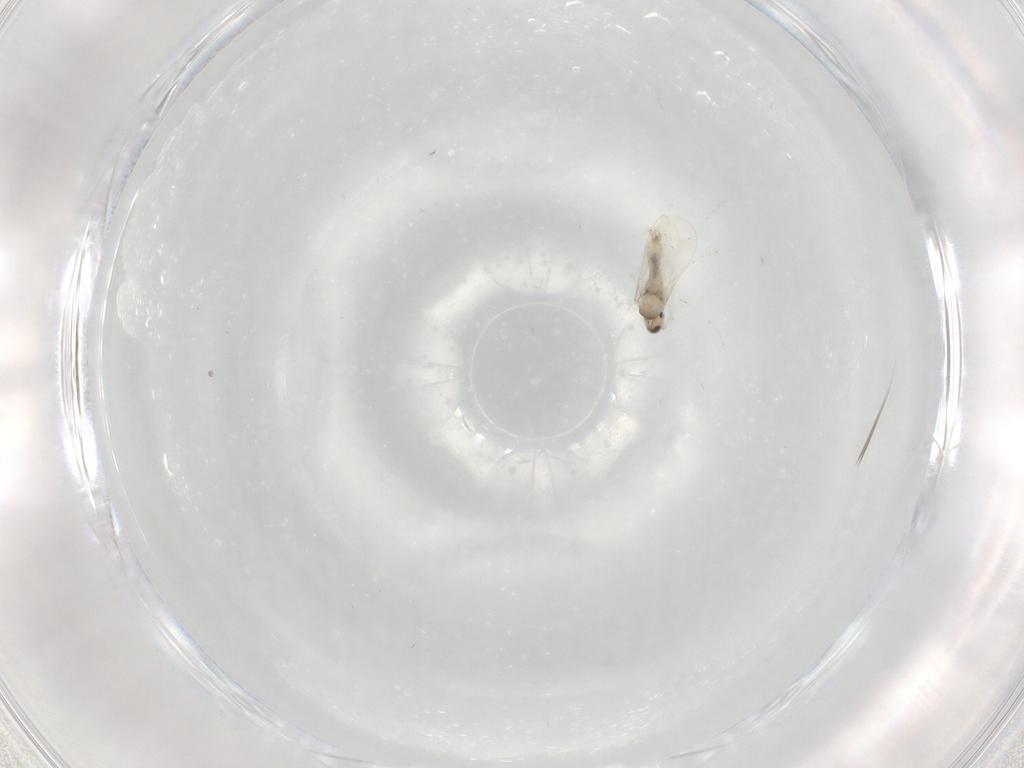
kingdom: Animalia
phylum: Arthropoda
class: Insecta
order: Diptera
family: Cecidomyiidae
